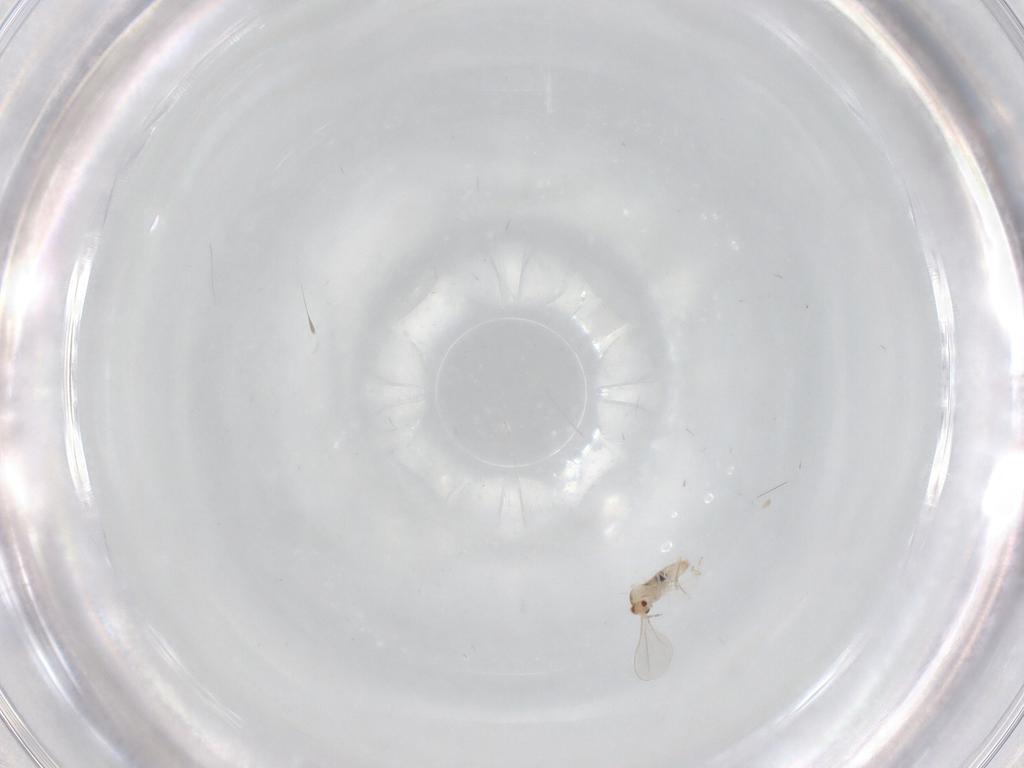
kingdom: Animalia
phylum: Arthropoda
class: Insecta
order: Diptera
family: Cecidomyiidae
